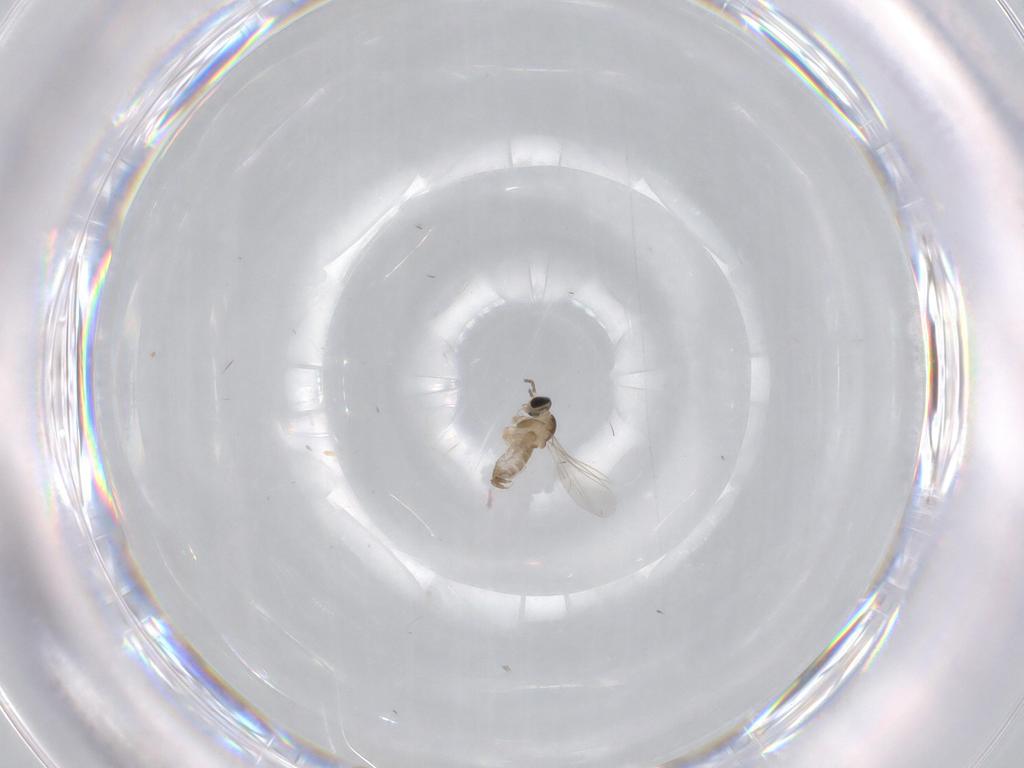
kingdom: Animalia
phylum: Arthropoda
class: Insecta
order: Diptera
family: Cecidomyiidae
